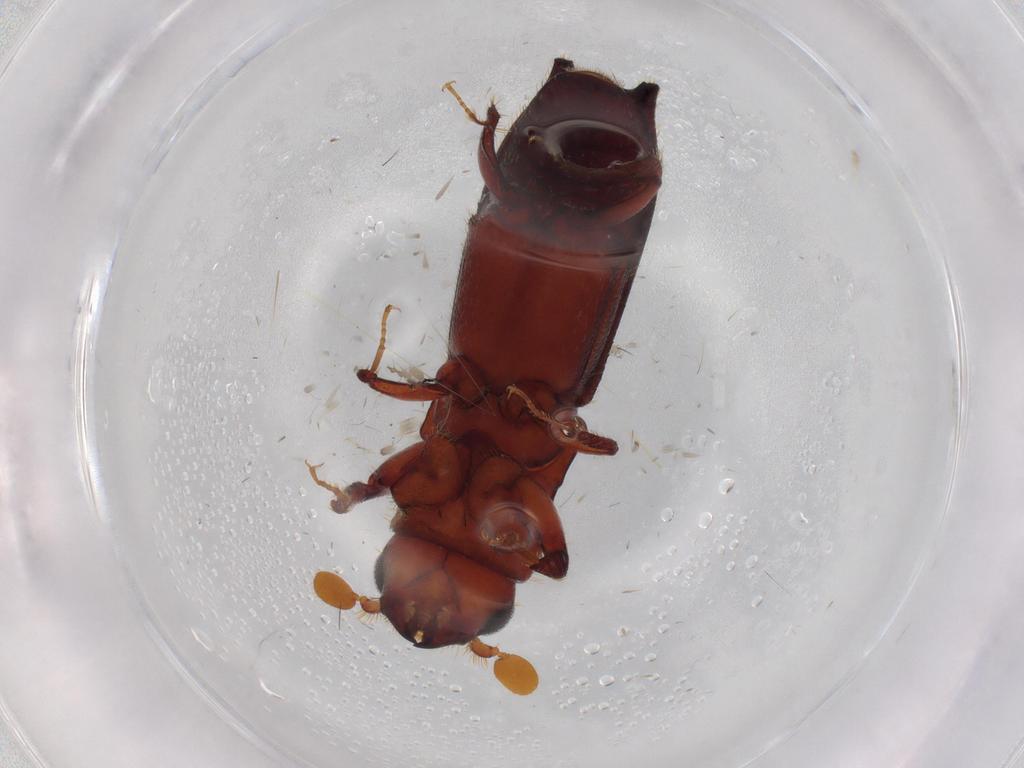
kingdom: Animalia
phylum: Arthropoda
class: Insecta
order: Coleoptera
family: Curculionidae
